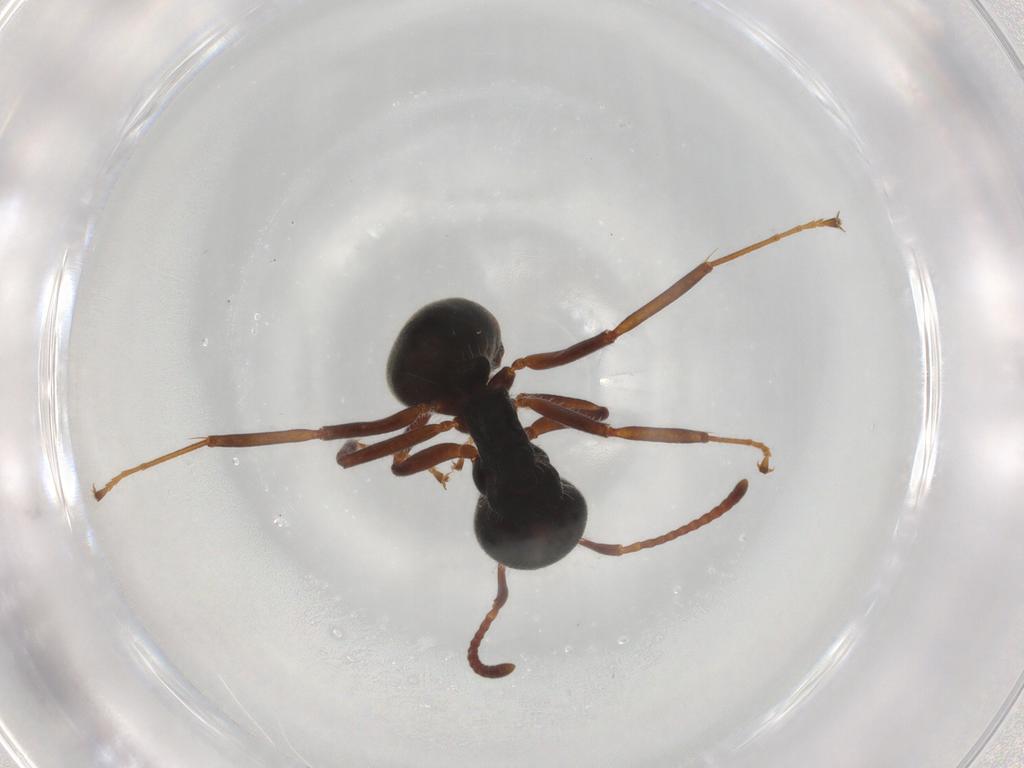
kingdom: Animalia
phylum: Arthropoda
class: Insecta
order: Hymenoptera
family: Formicidae
